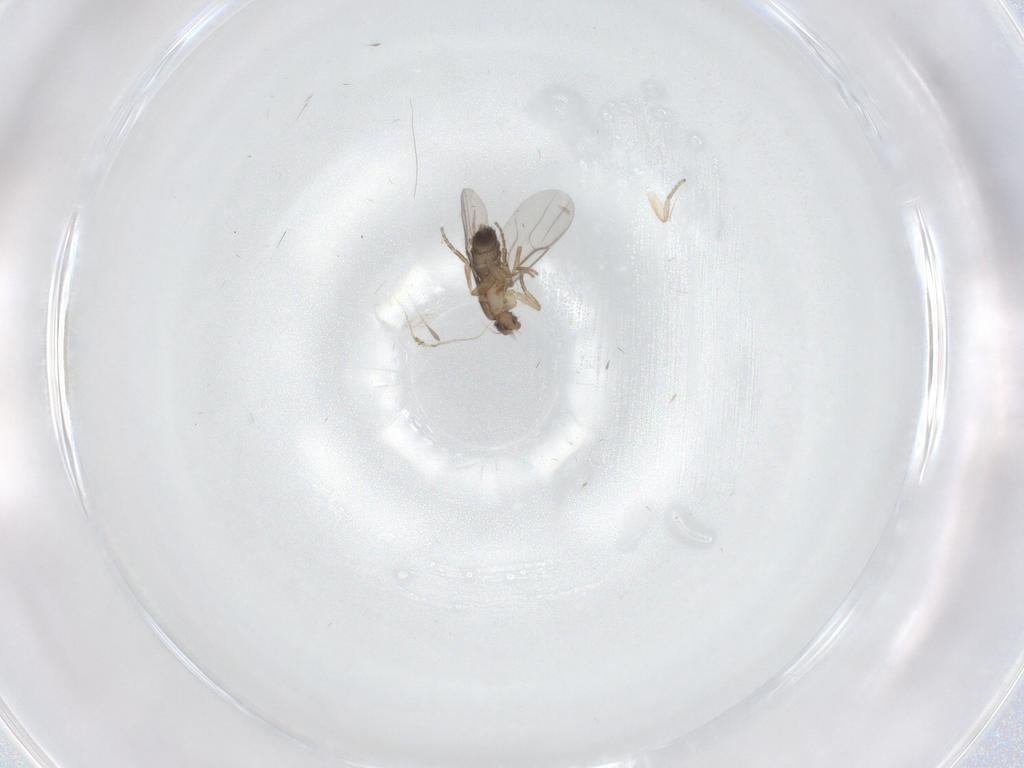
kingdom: Animalia
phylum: Arthropoda
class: Insecta
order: Diptera
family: Phoridae
